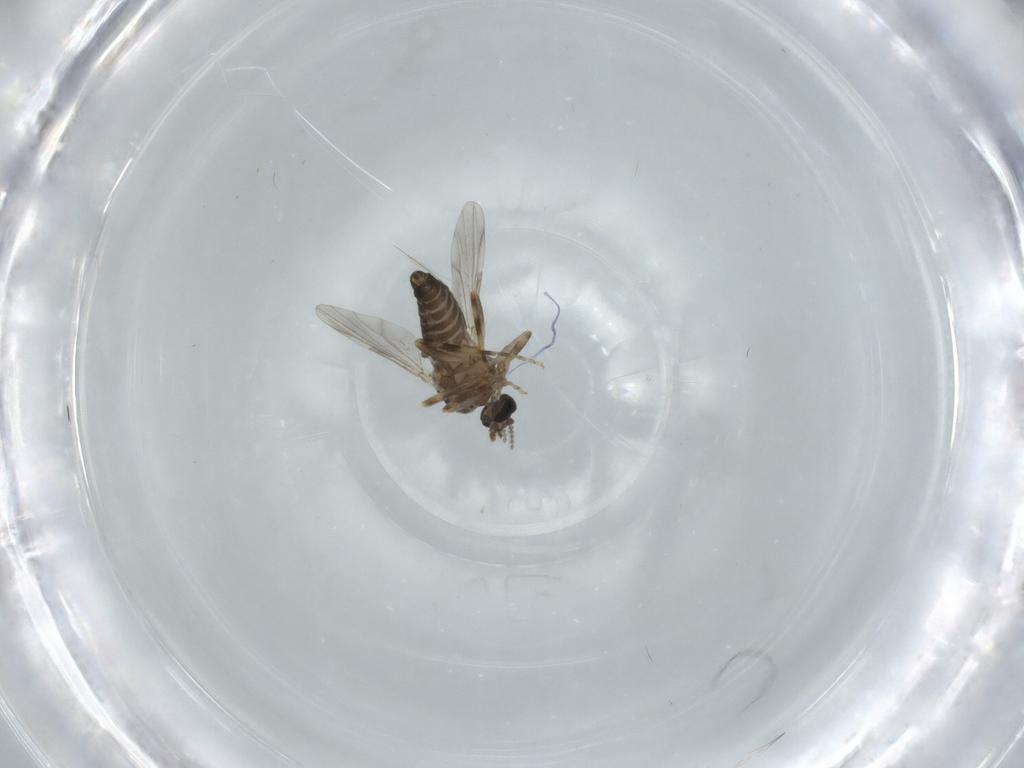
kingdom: Animalia
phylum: Arthropoda
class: Insecta
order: Diptera
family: Ceratopogonidae
